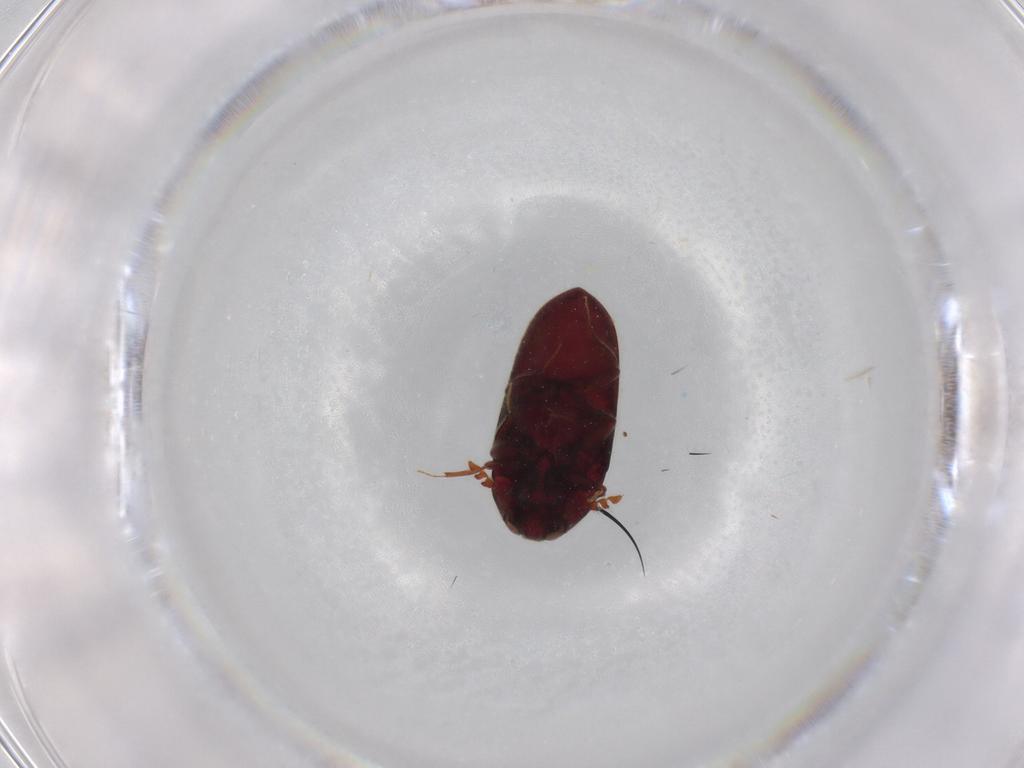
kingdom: Animalia
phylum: Arthropoda
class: Insecta
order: Coleoptera
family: Throscidae
